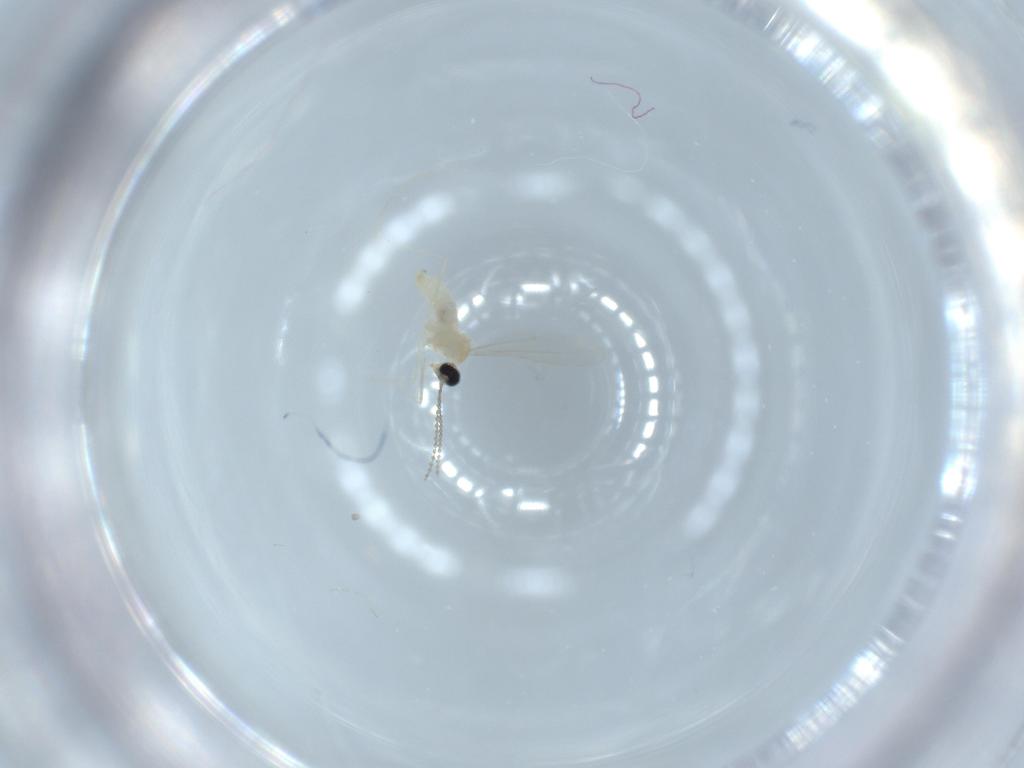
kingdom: Animalia
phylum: Arthropoda
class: Insecta
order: Diptera
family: Cecidomyiidae
